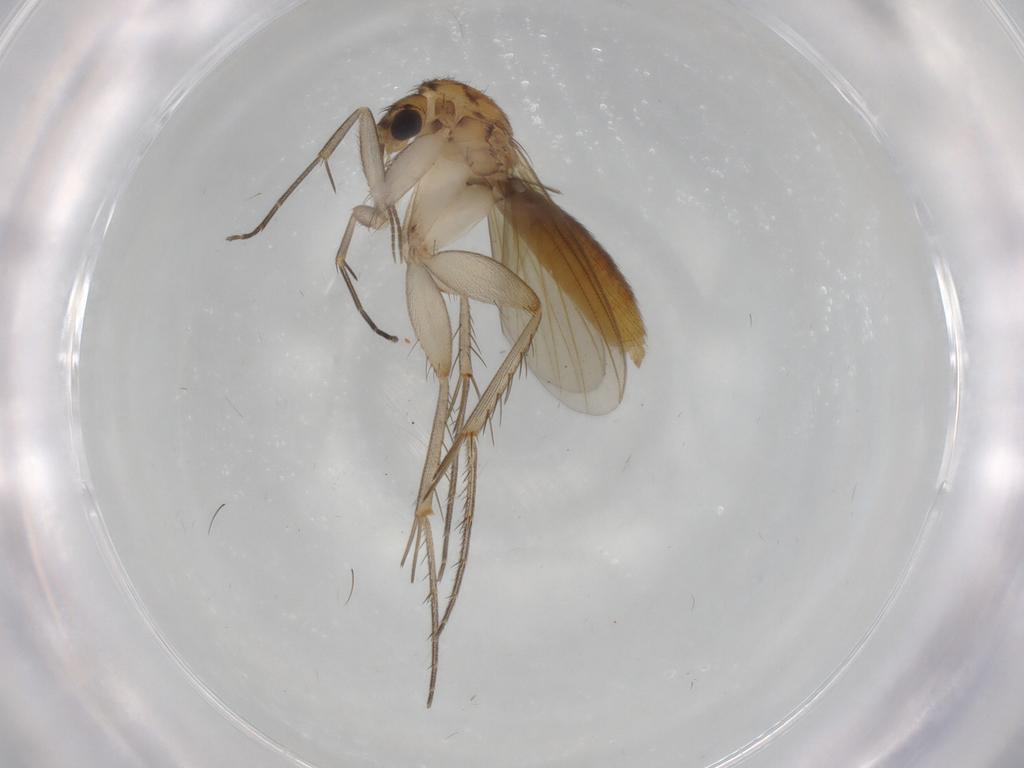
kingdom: Animalia
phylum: Arthropoda
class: Insecta
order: Diptera
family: Mycetophilidae
